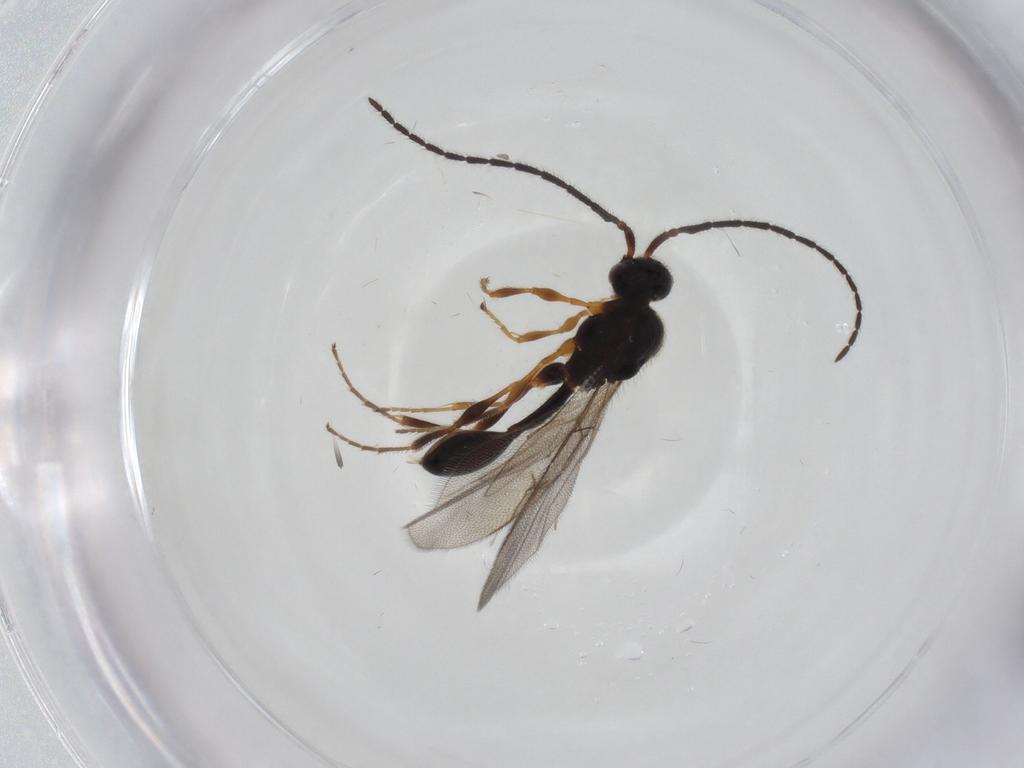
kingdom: Animalia
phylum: Arthropoda
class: Insecta
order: Hymenoptera
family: Diapriidae
